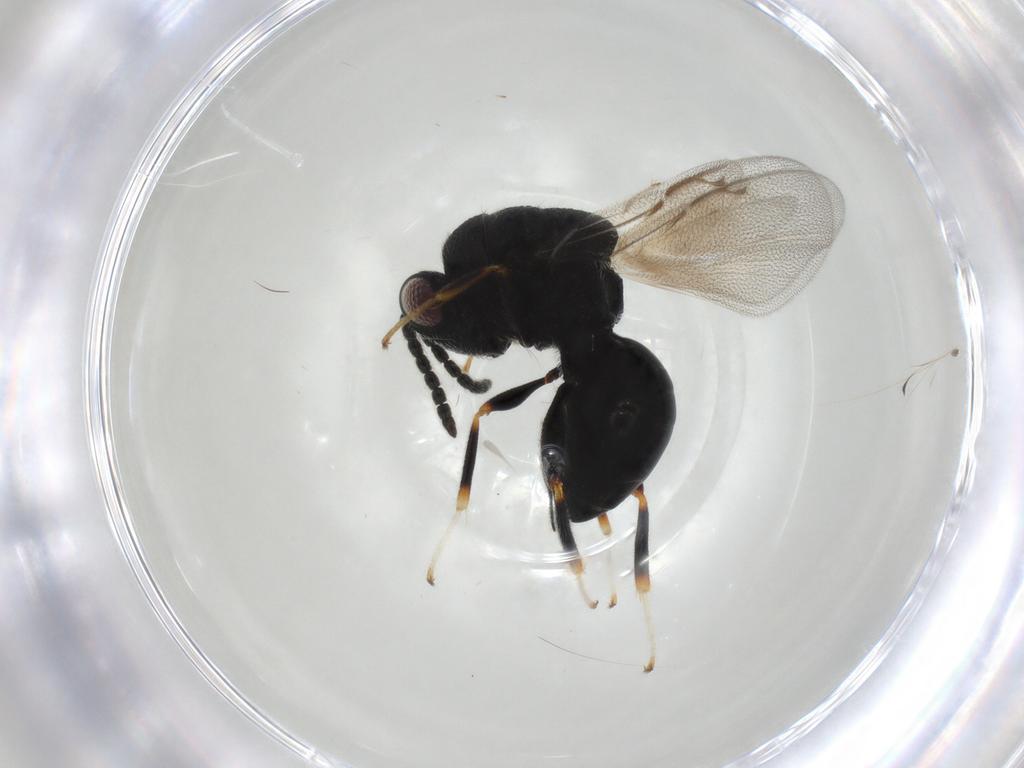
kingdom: Animalia
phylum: Arthropoda
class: Insecta
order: Hymenoptera
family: Eurytomidae
